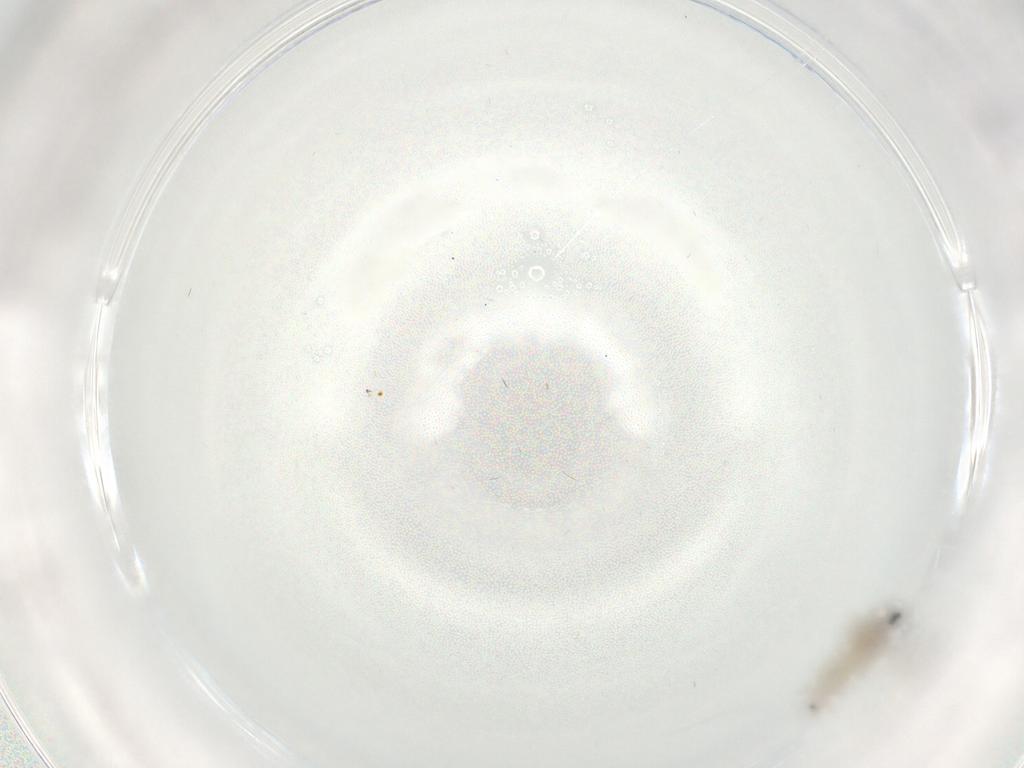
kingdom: Animalia
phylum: Arthropoda
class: Insecta
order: Diptera
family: Cecidomyiidae
